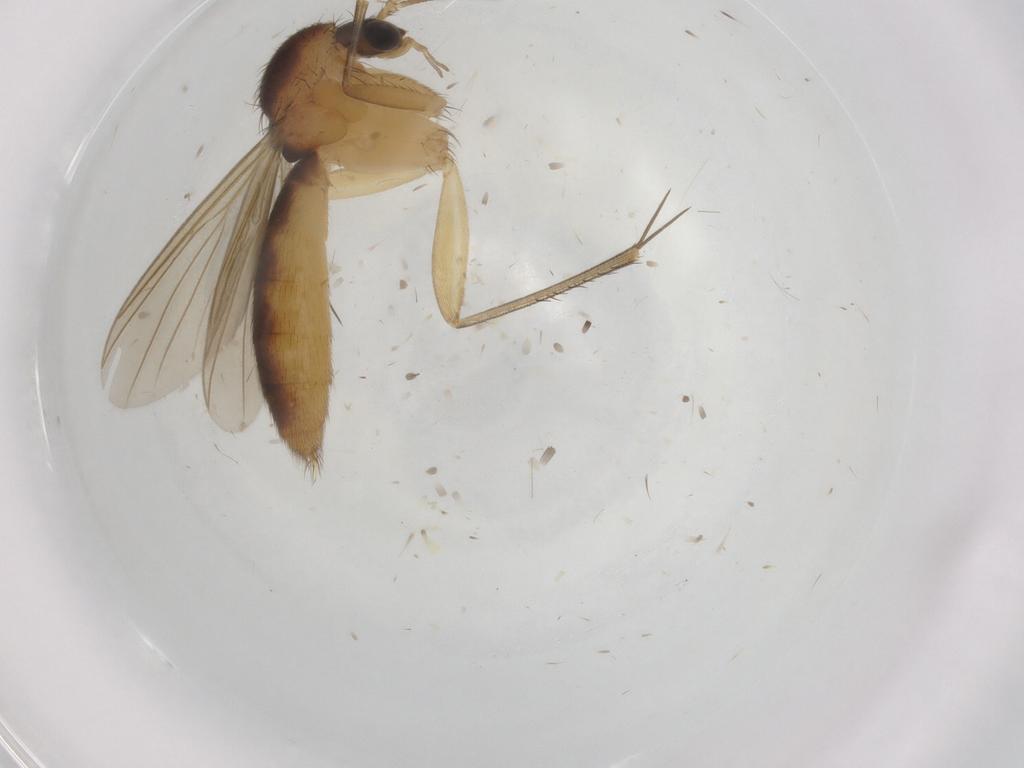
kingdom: Animalia
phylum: Arthropoda
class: Insecta
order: Diptera
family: Mycetophilidae
